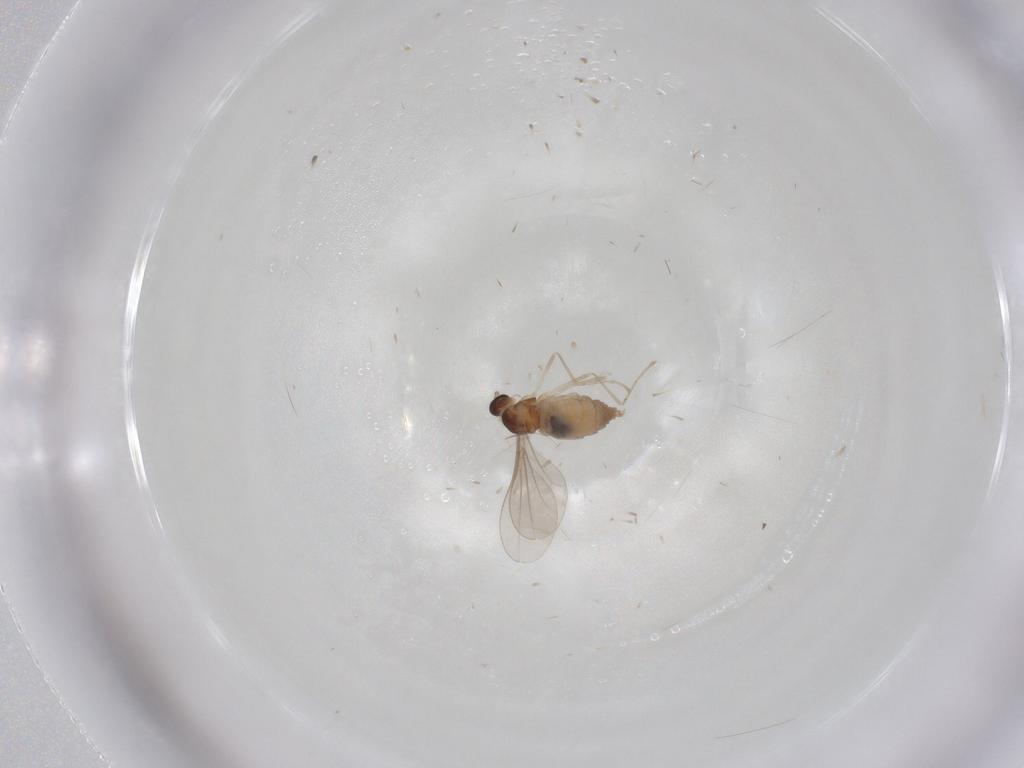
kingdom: Animalia
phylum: Arthropoda
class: Insecta
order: Diptera
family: Cecidomyiidae
